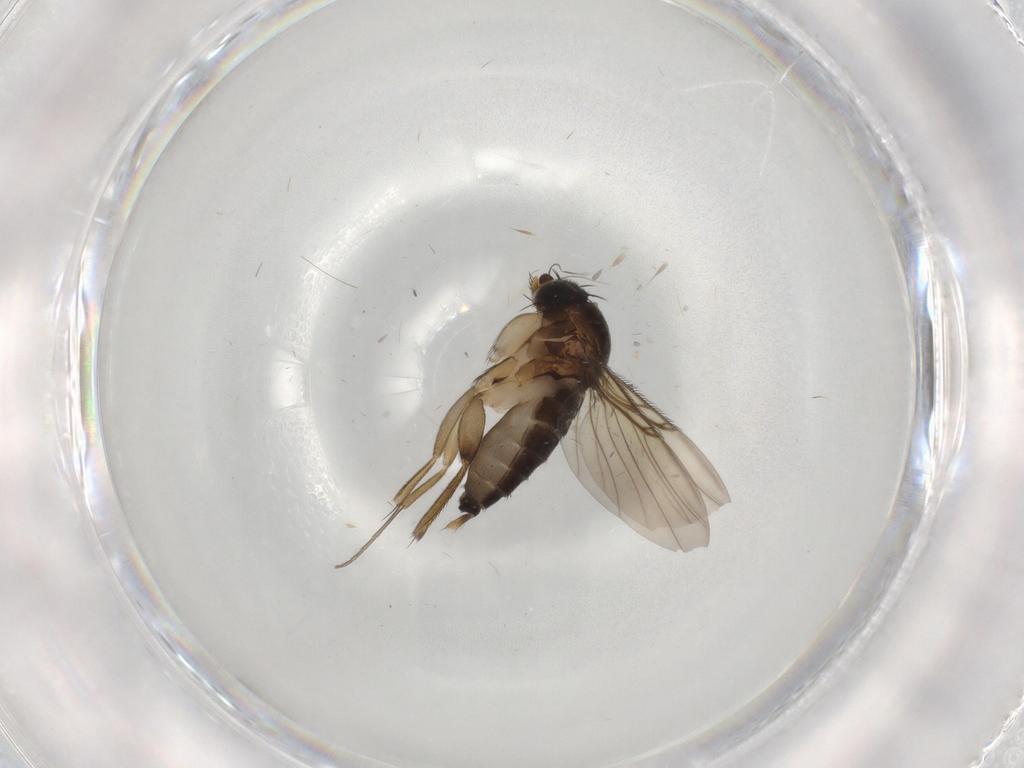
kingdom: Animalia
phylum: Arthropoda
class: Insecta
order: Diptera
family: Phoridae
